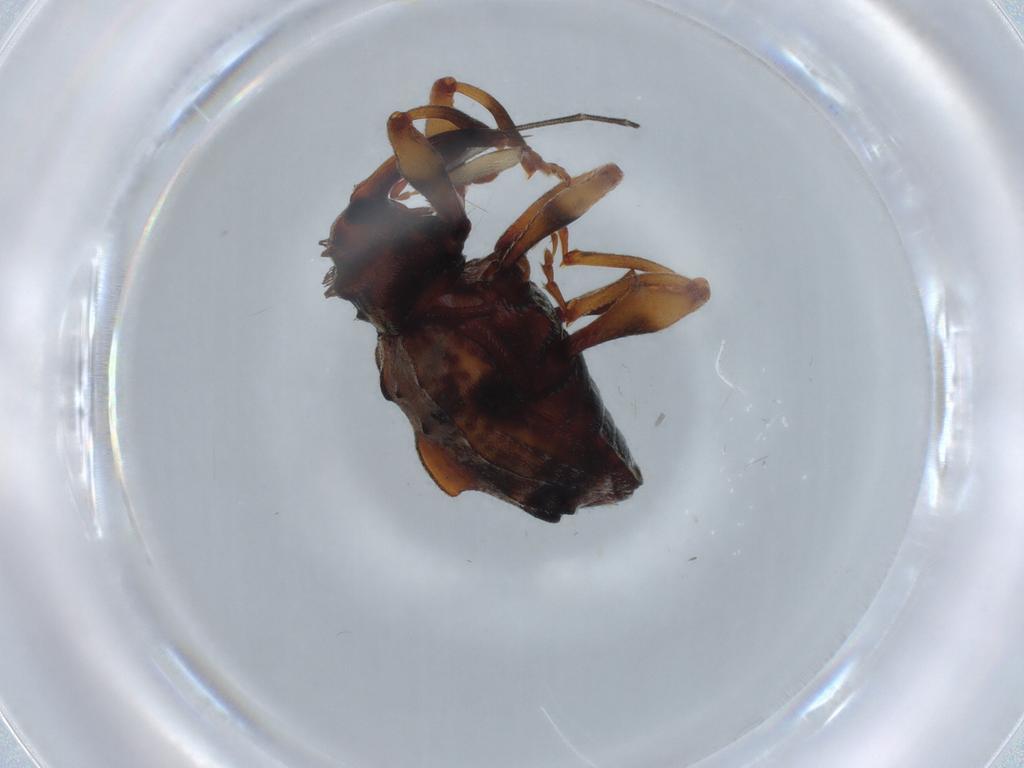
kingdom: Animalia
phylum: Arthropoda
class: Insecta
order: Coleoptera
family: Curculionidae
